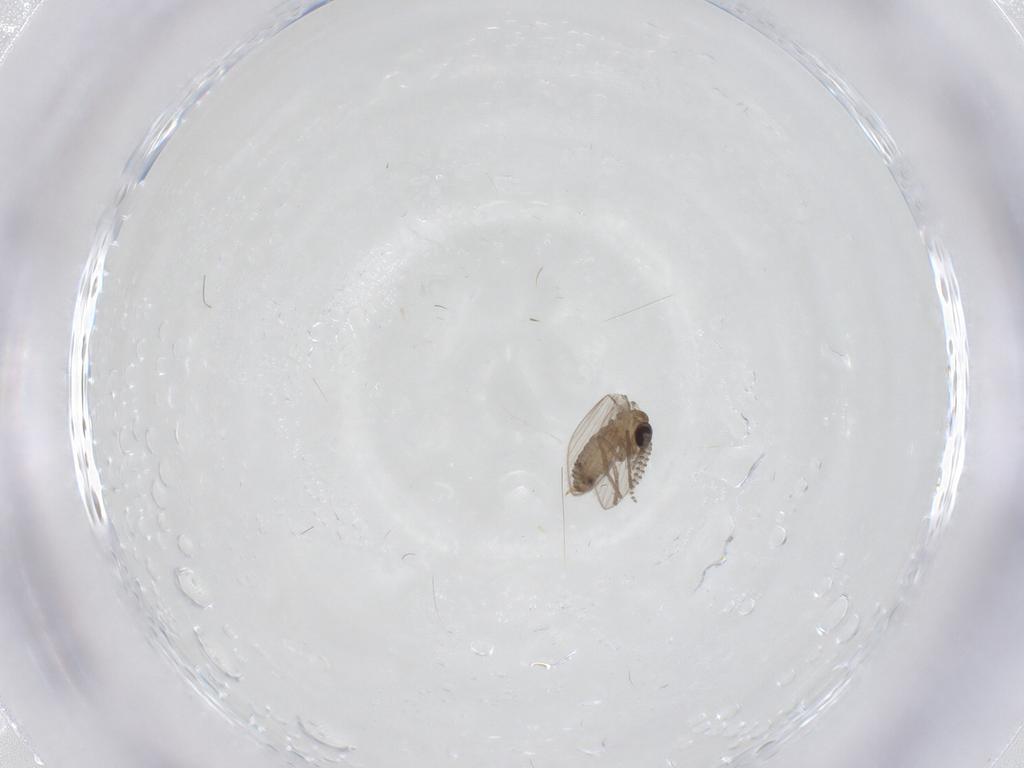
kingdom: Animalia
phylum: Arthropoda
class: Insecta
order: Diptera
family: Psychodidae
